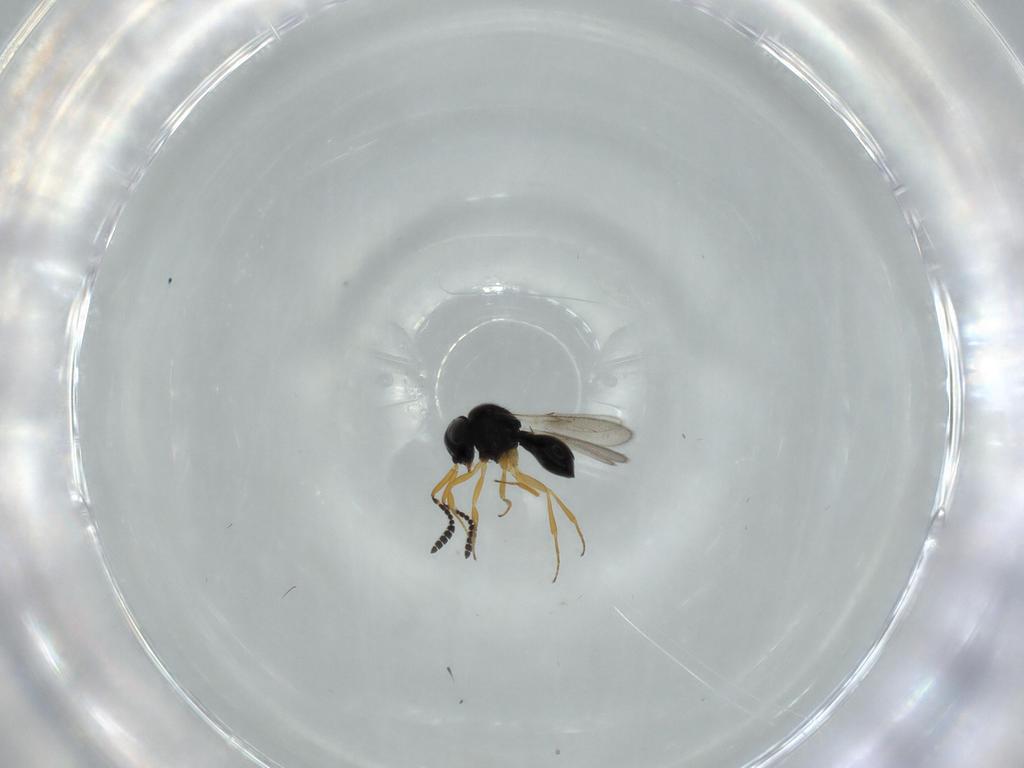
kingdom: Animalia
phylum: Arthropoda
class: Insecta
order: Hymenoptera
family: Scelionidae
